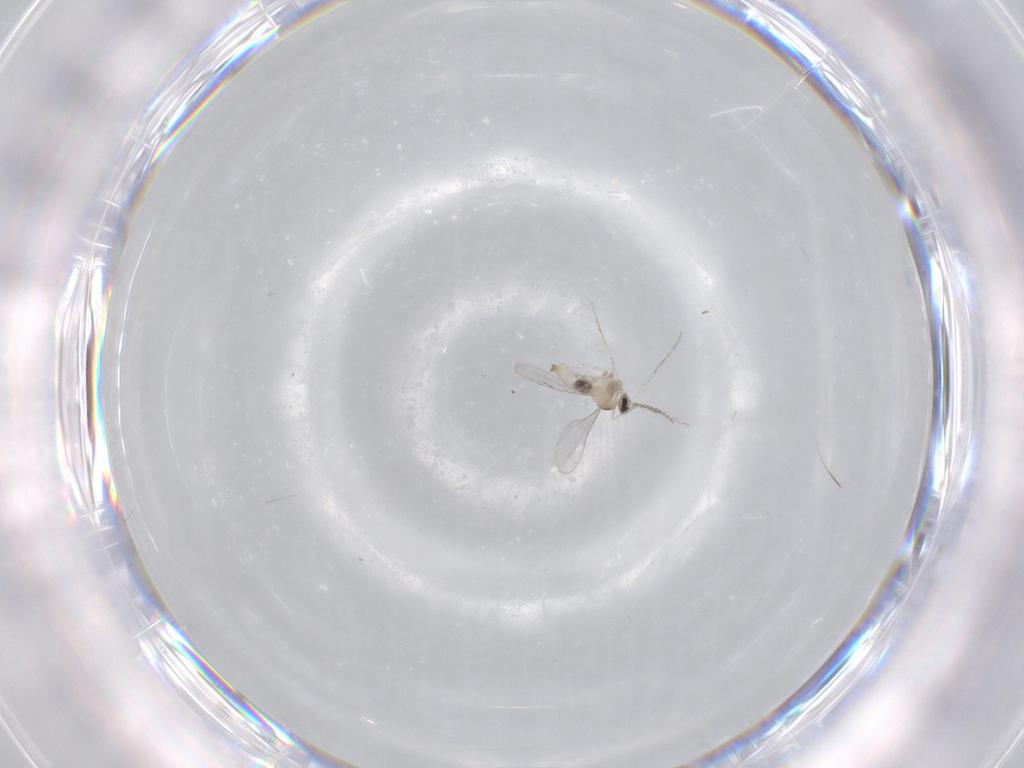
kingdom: Animalia
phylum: Arthropoda
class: Insecta
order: Diptera
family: Cecidomyiidae
